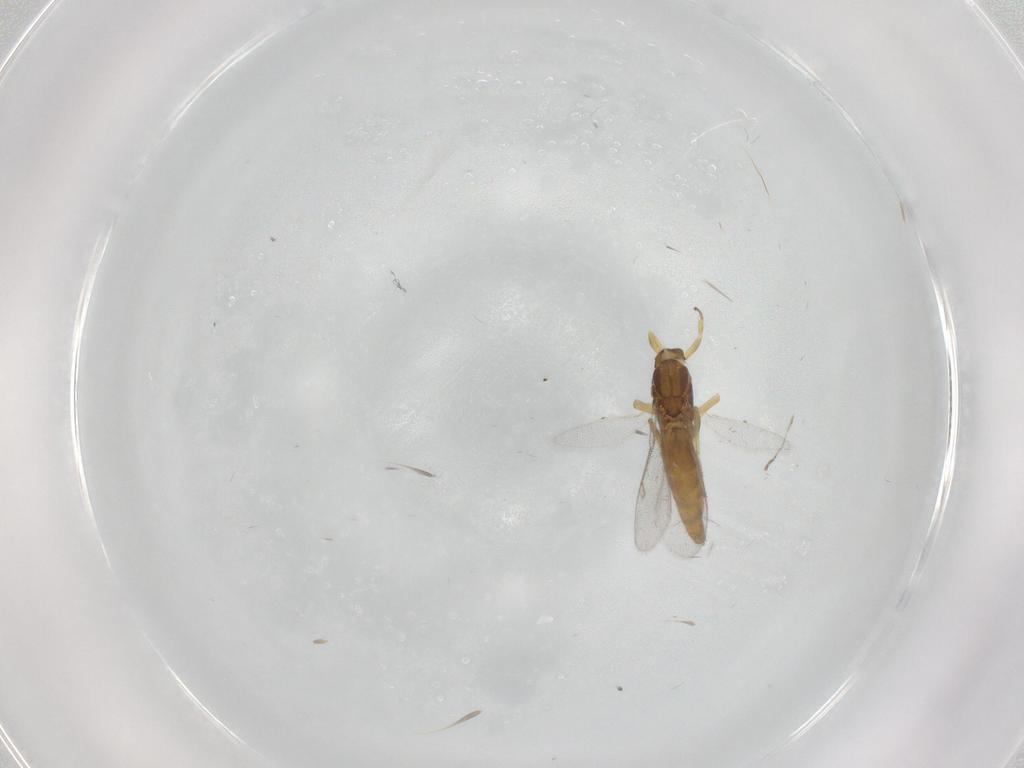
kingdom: Animalia
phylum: Arthropoda
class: Insecta
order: Hymenoptera
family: Eupelmidae
